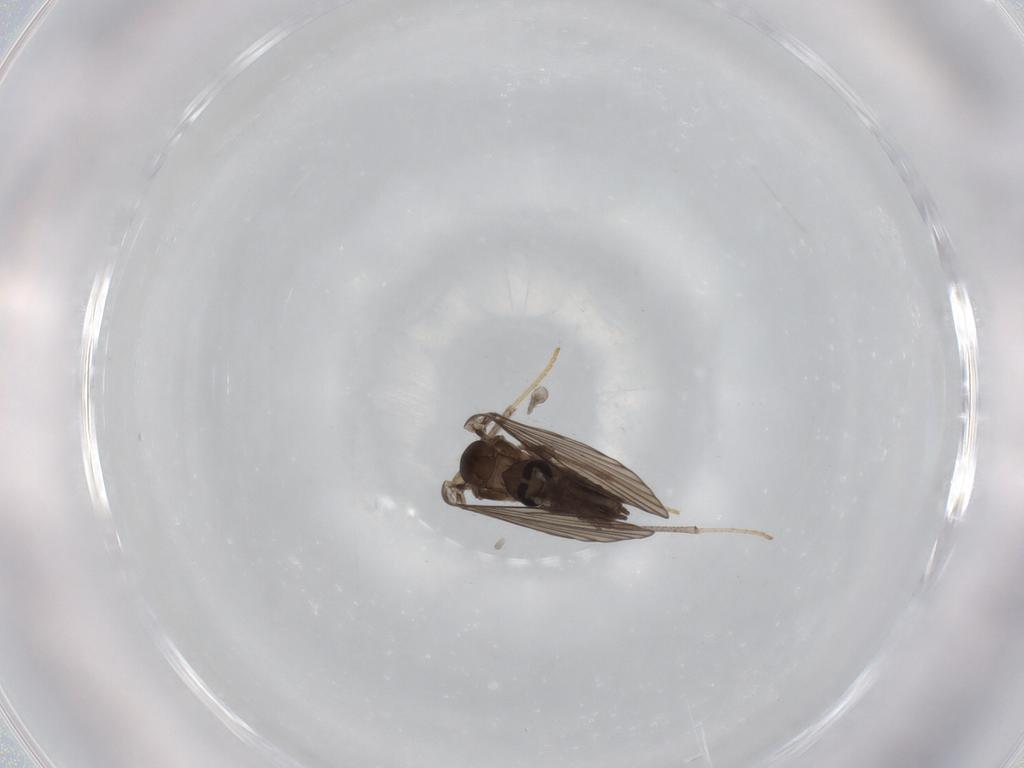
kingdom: Animalia
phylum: Arthropoda
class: Insecta
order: Diptera
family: Psychodidae
